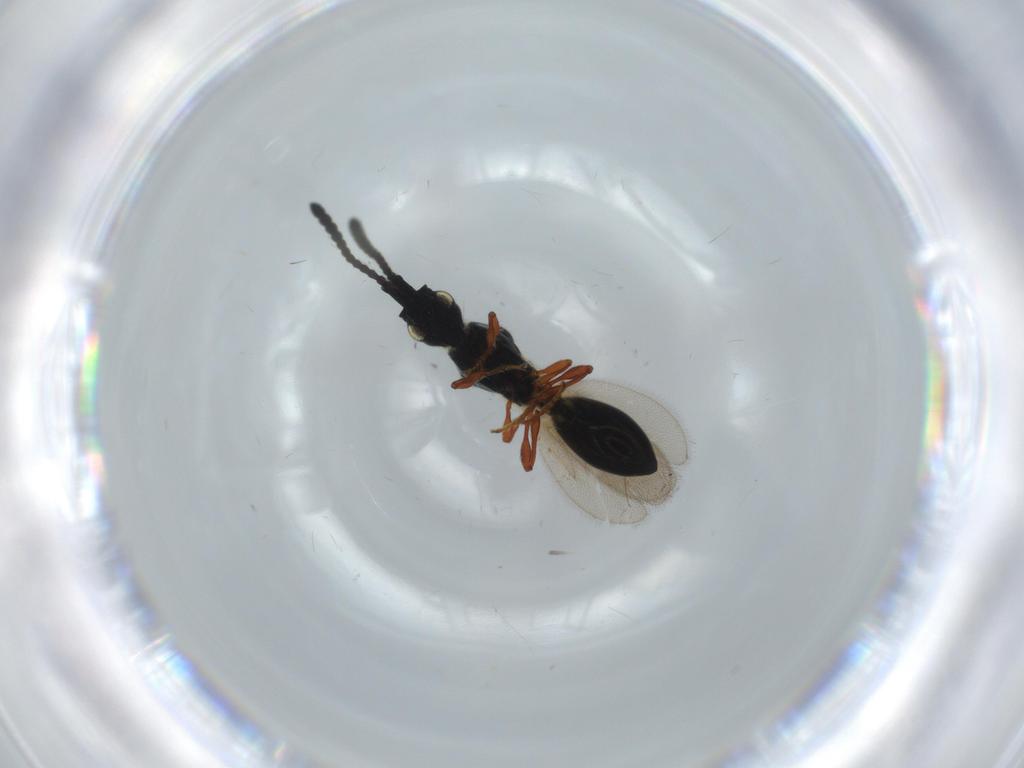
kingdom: Animalia
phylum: Arthropoda
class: Insecta
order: Hymenoptera
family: Diapriidae
